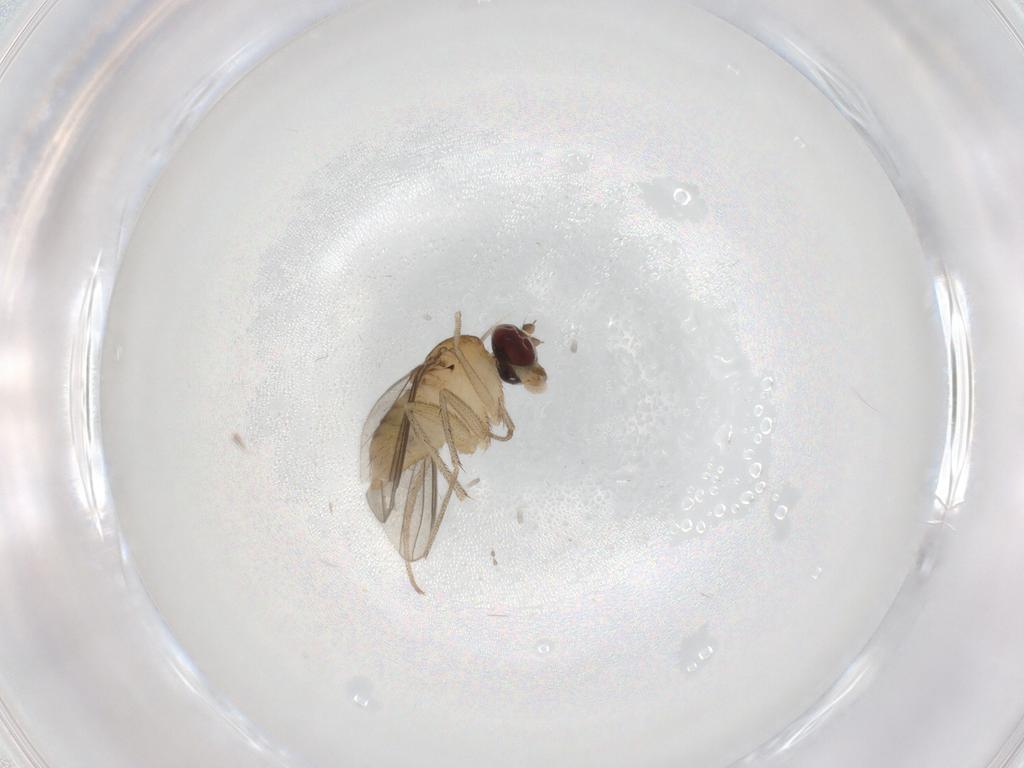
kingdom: Animalia
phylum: Arthropoda
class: Insecta
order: Diptera
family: Dolichopodidae
